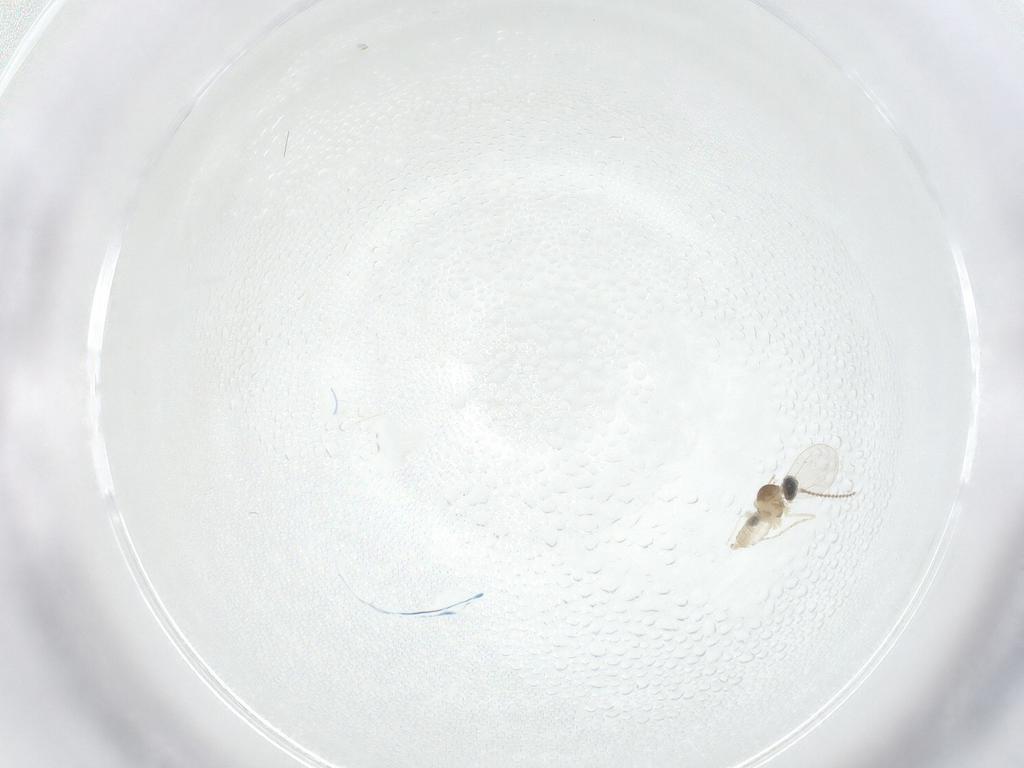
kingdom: Animalia
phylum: Arthropoda
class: Insecta
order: Diptera
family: Cecidomyiidae
